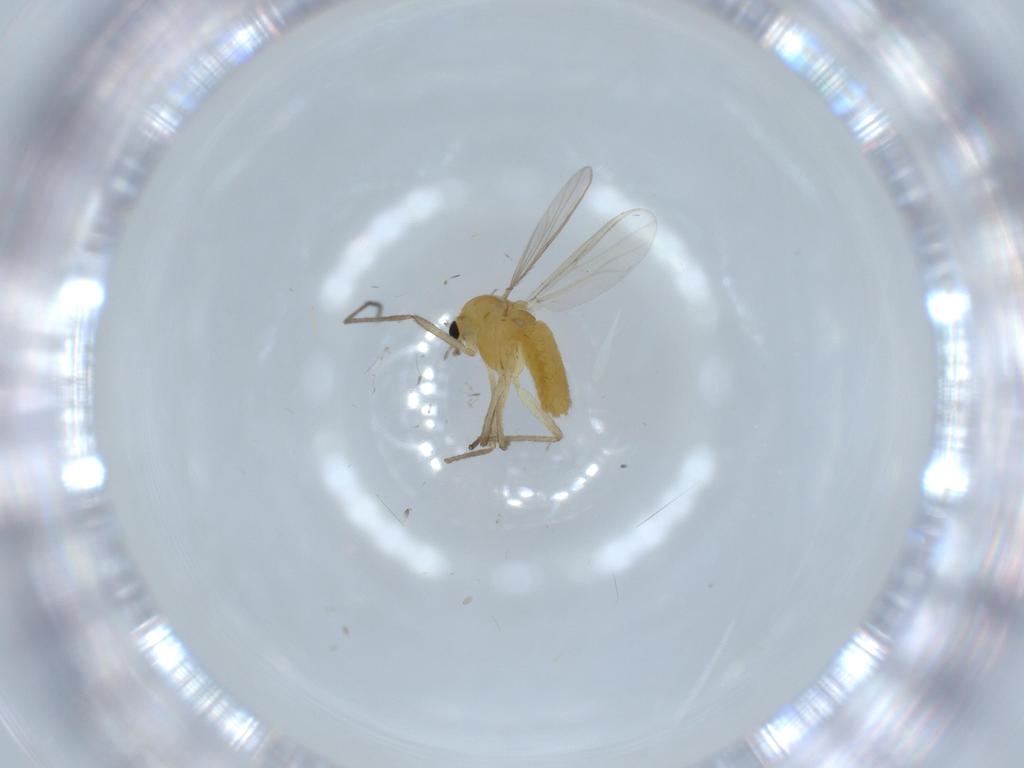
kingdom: Animalia
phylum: Arthropoda
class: Insecta
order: Diptera
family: Chironomidae
